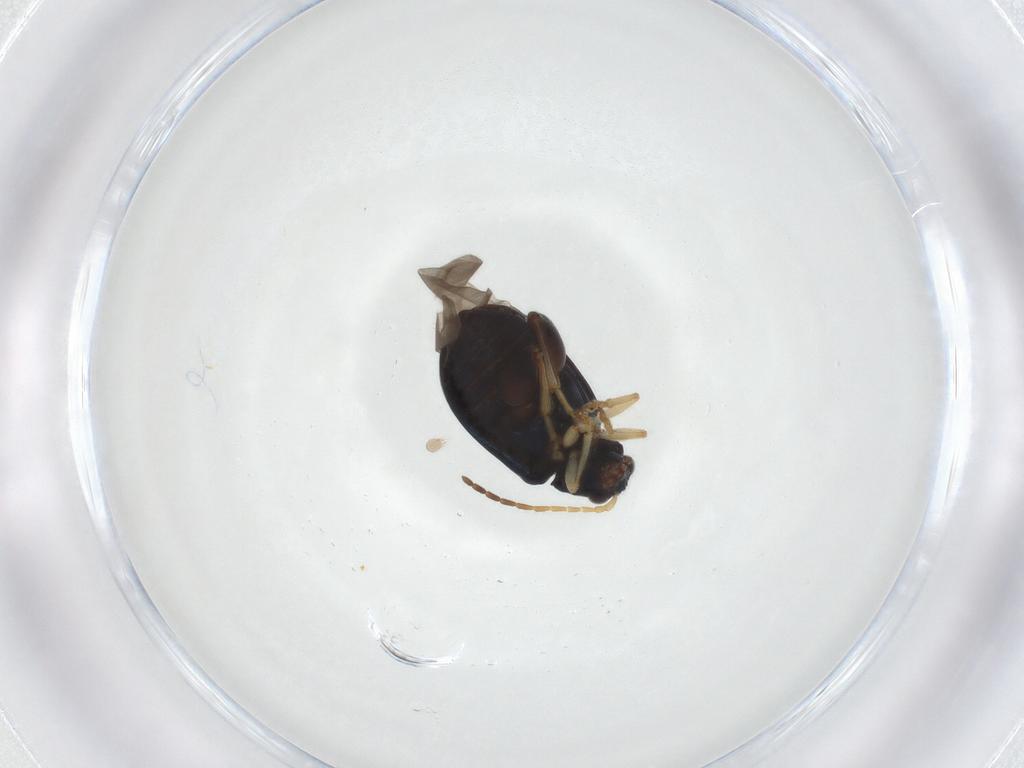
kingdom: Animalia
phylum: Arthropoda
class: Insecta
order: Coleoptera
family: Chrysomelidae
